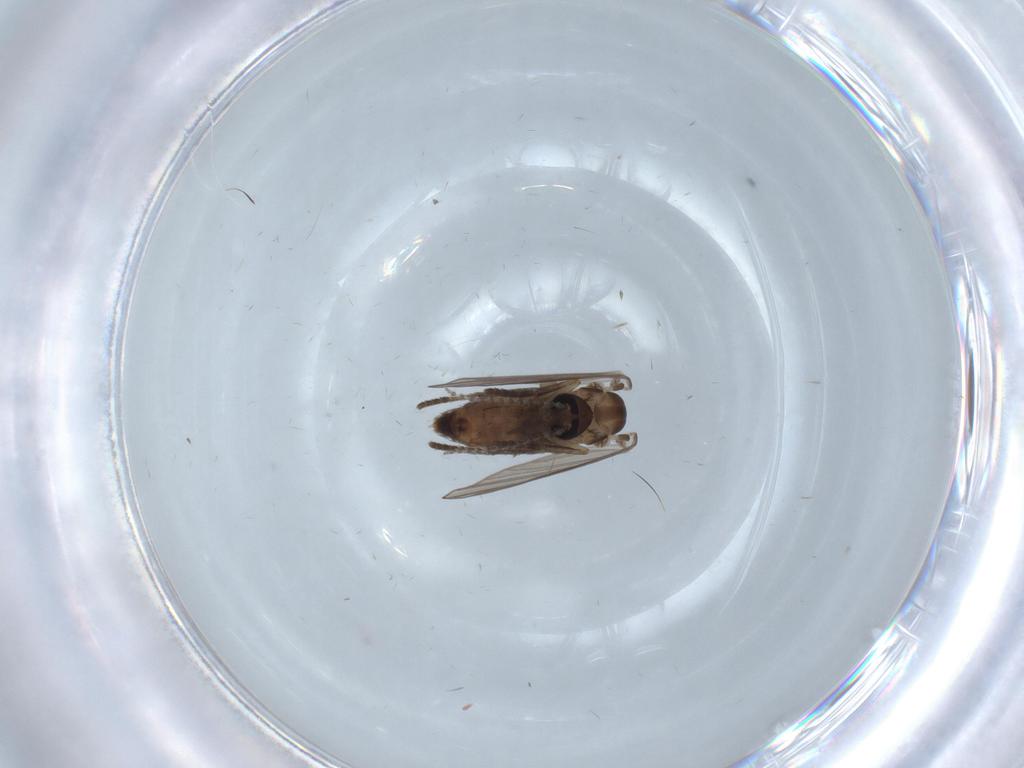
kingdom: Animalia
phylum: Arthropoda
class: Insecta
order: Diptera
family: Psychodidae
